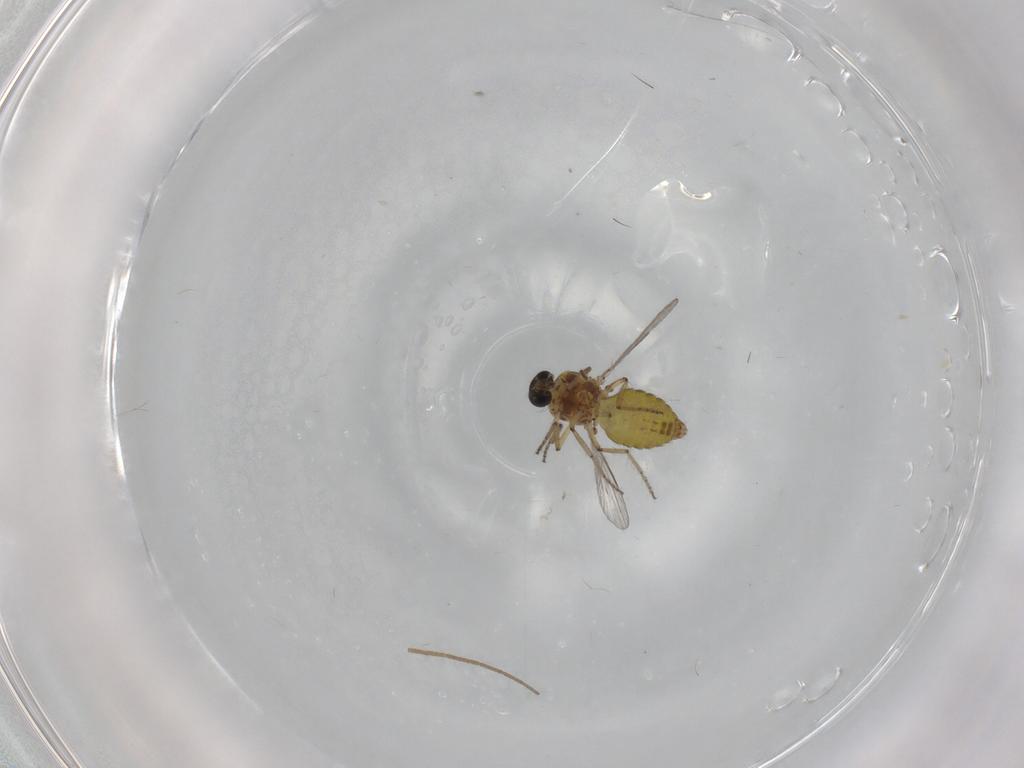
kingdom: Animalia
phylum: Arthropoda
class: Insecta
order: Diptera
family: Ceratopogonidae
